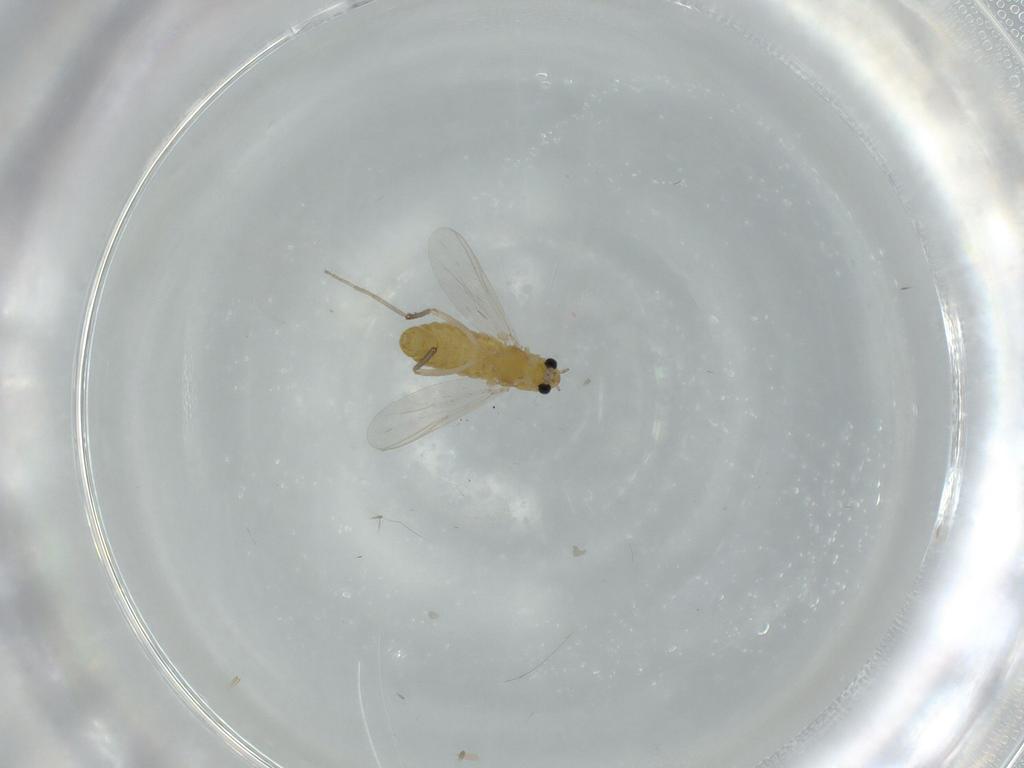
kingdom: Animalia
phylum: Arthropoda
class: Insecta
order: Diptera
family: Chironomidae
